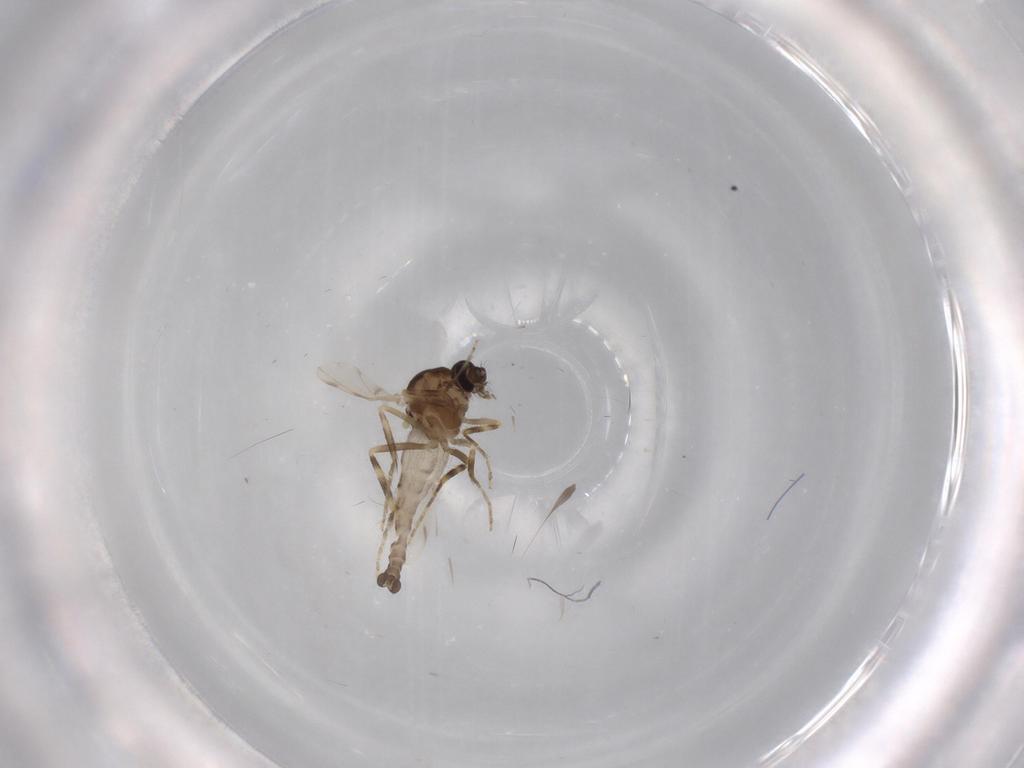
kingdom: Animalia
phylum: Arthropoda
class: Insecta
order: Diptera
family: Ceratopogonidae
